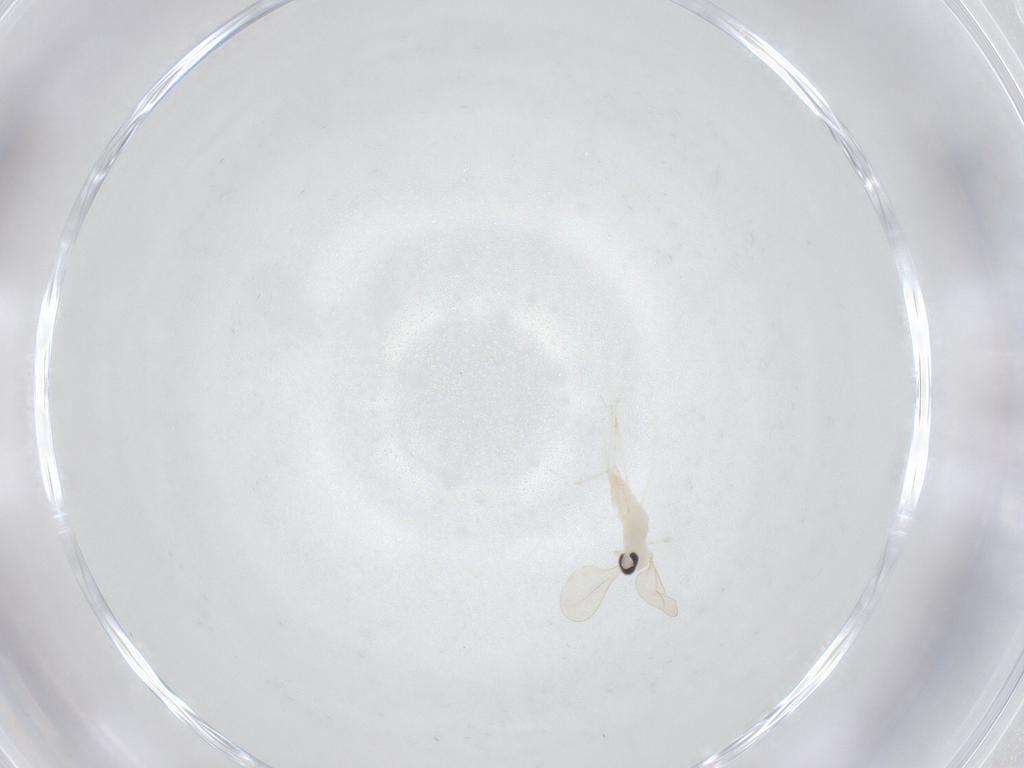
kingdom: Animalia
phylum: Arthropoda
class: Insecta
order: Diptera
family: Cecidomyiidae
